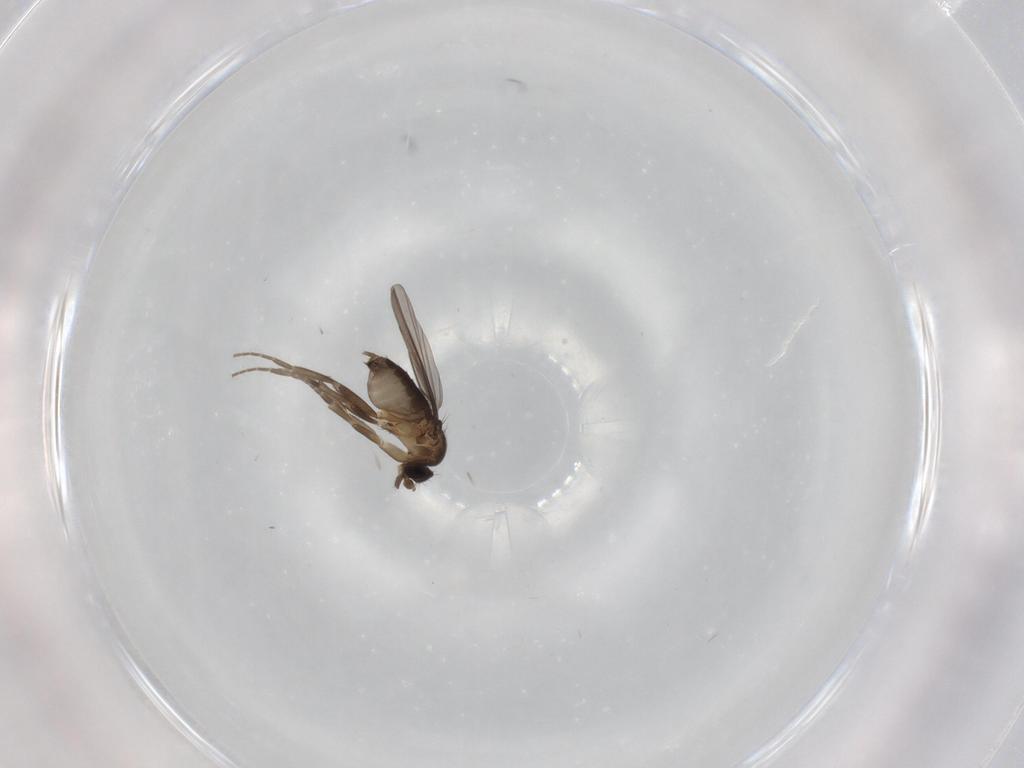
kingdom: Animalia
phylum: Arthropoda
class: Insecta
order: Diptera
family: Phoridae
